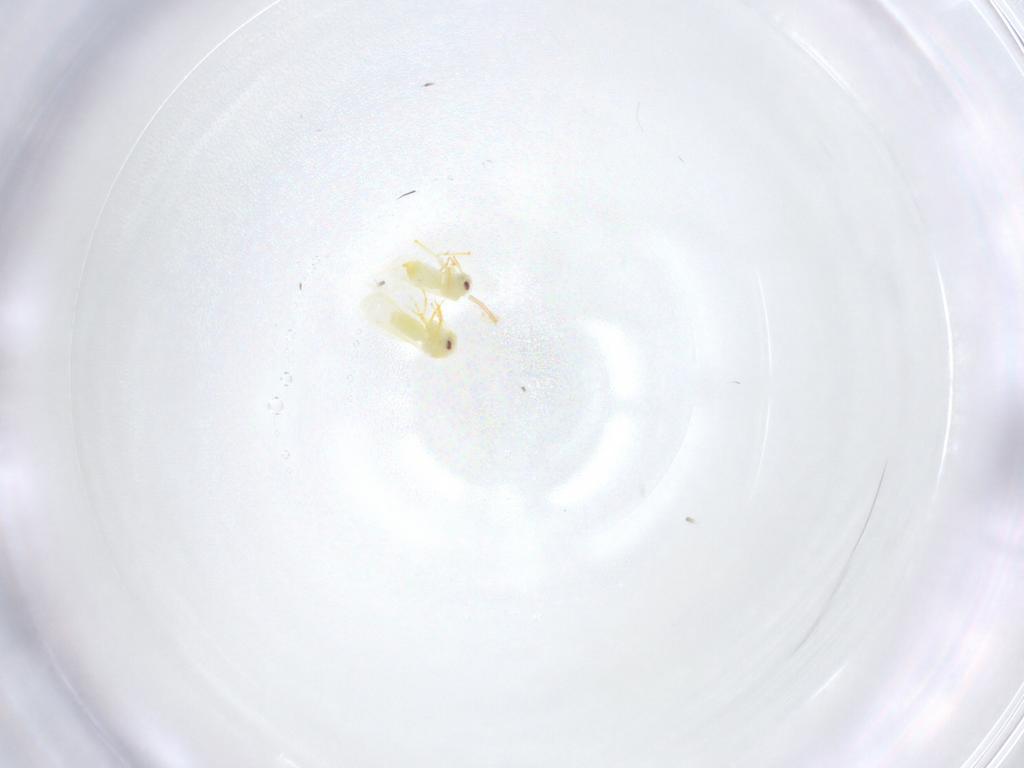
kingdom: Animalia
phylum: Arthropoda
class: Insecta
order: Hemiptera
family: Aleyrodidae
